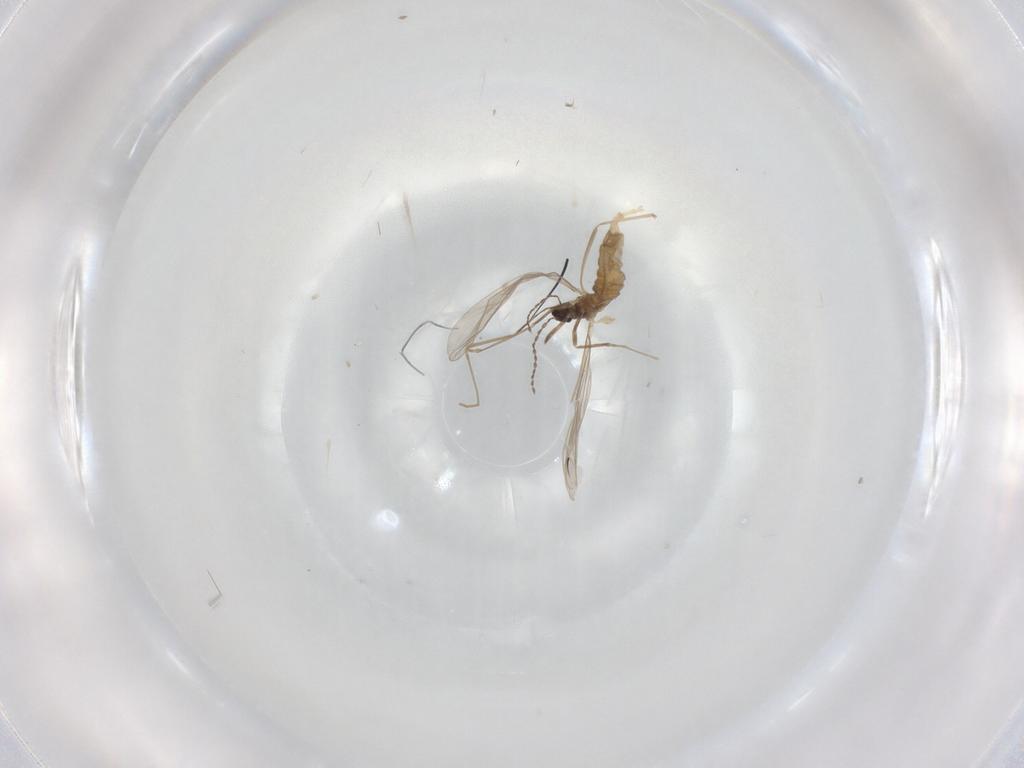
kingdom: Animalia
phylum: Arthropoda
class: Insecta
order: Diptera
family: Cecidomyiidae
